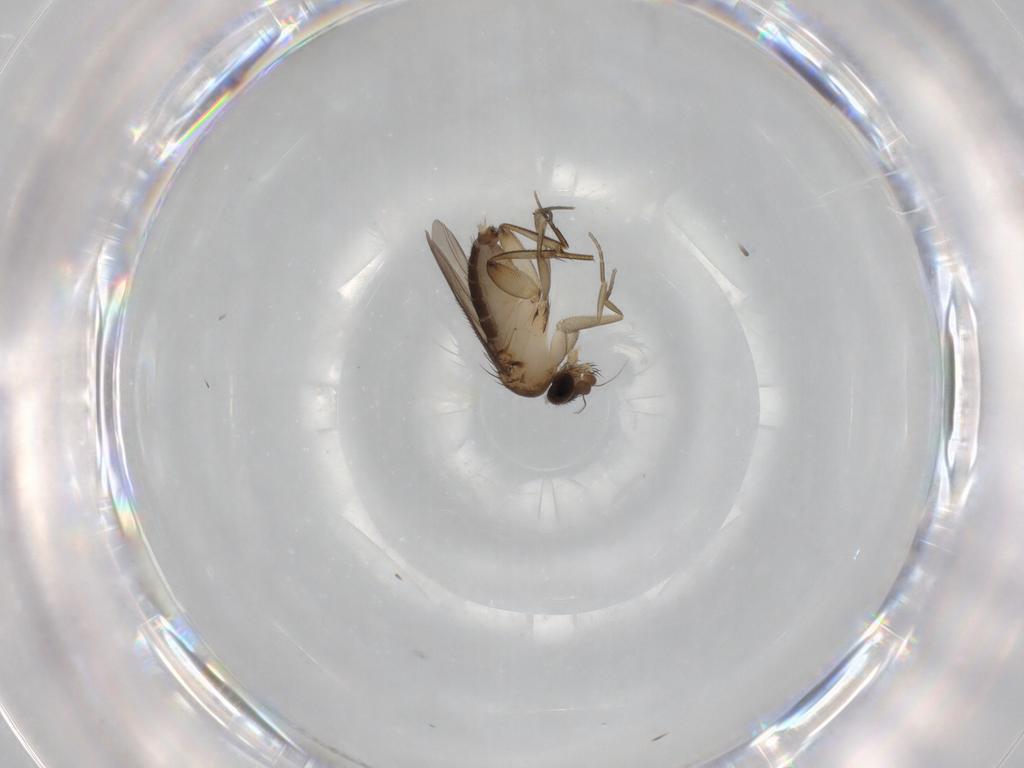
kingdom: Animalia
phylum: Arthropoda
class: Insecta
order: Diptera
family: Phoridae
